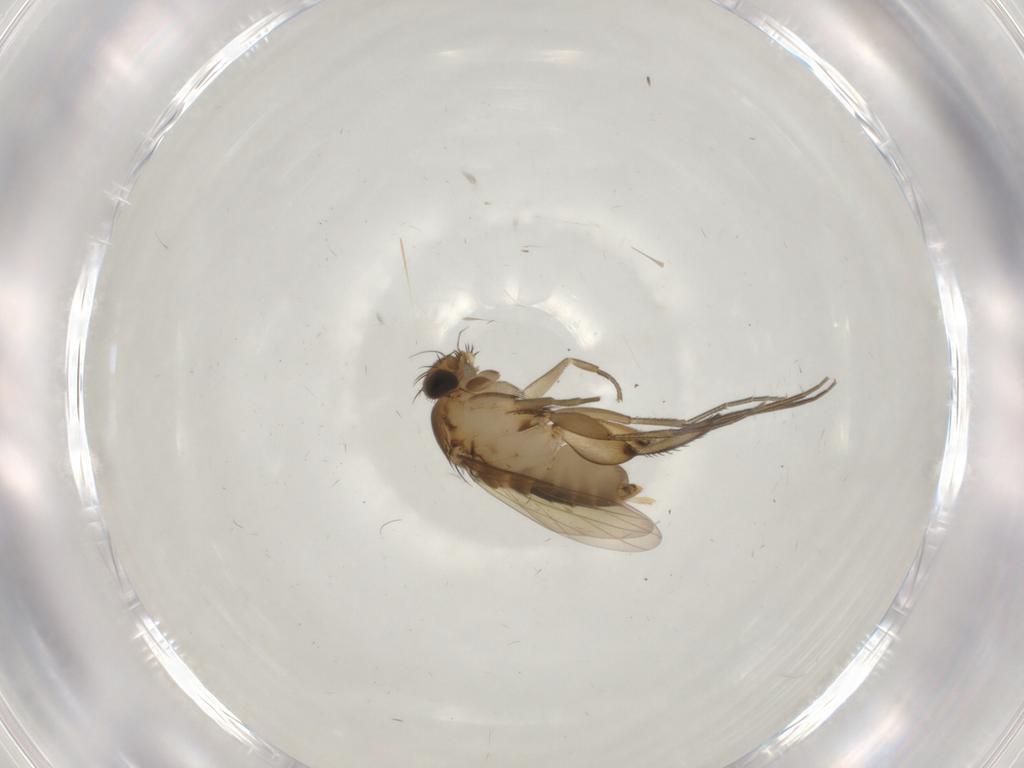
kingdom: Animalia
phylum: Arthropoda
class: Insecta
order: Diptera
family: Phoridae
